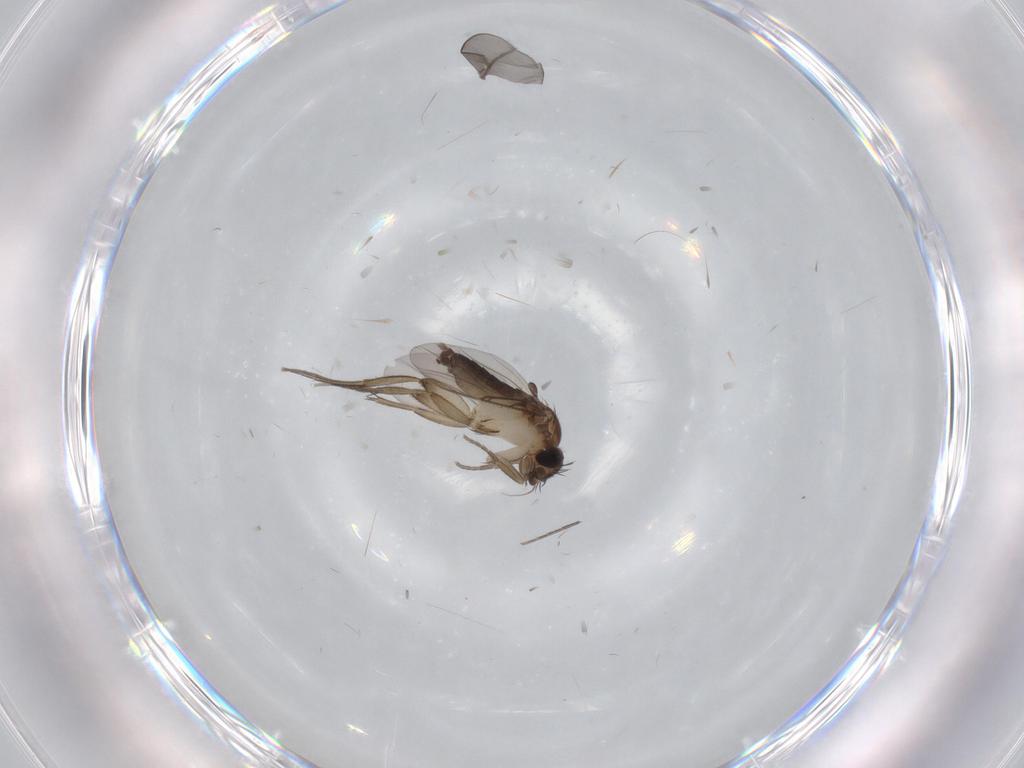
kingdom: Animalia
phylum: Arthropoda
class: Insecta
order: Diptera
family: Phoridae
